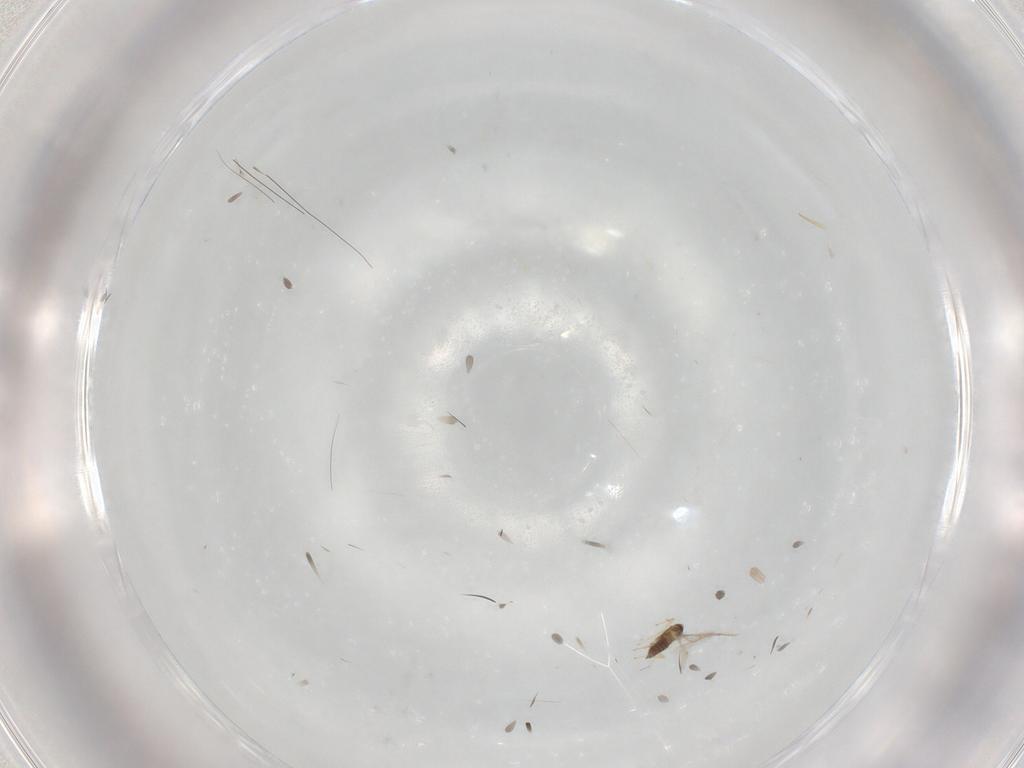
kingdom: Animalia
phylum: Arthropoda
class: Insecta
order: Hymenoptera
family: Mymaridae
